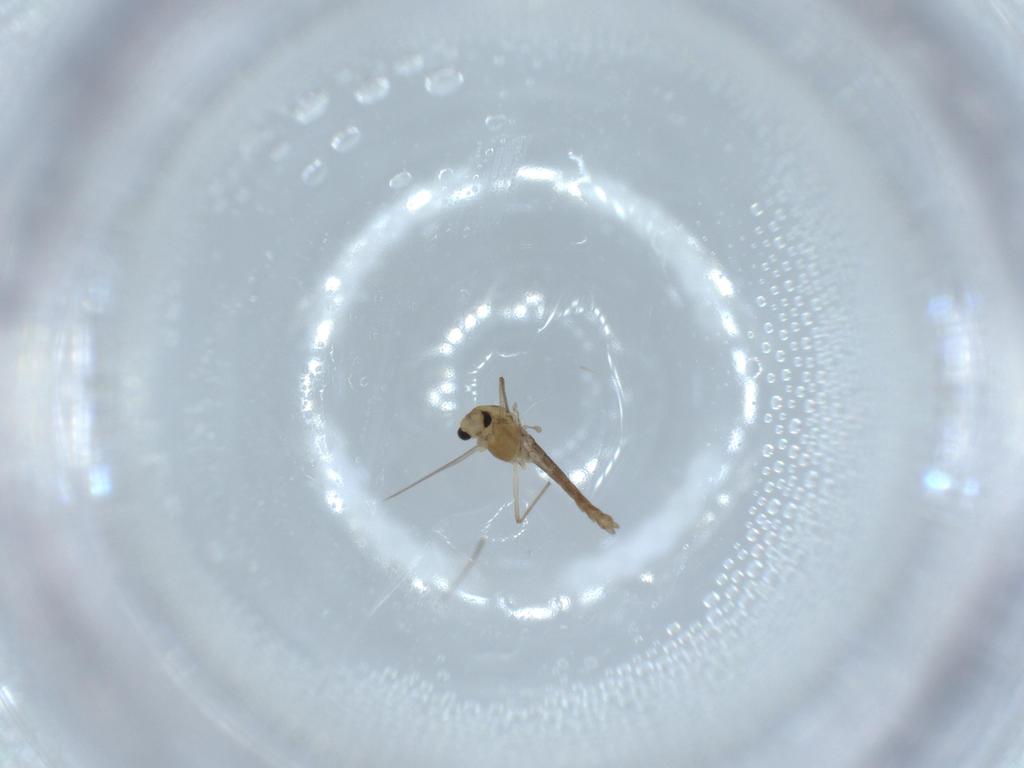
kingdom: Animalia
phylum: Arthropoda
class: Insecta
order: Diptera
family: Chironomidae
